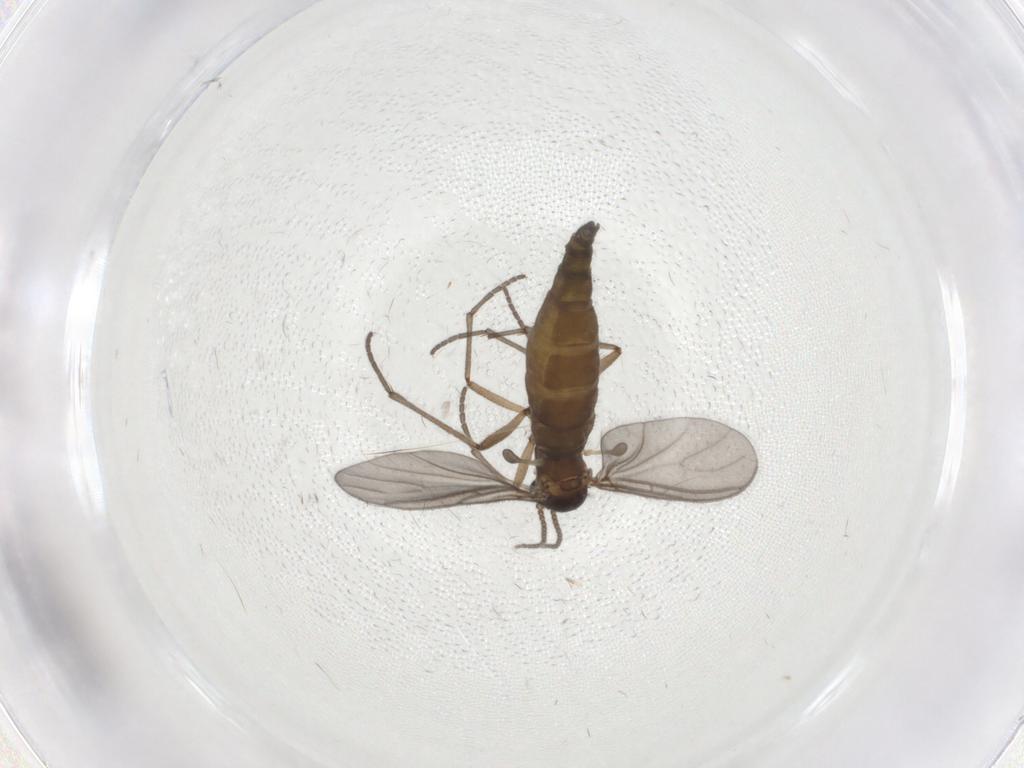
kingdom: Animalia
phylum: Arthropoda
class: Insecta
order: Diptera
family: Sciaridae
